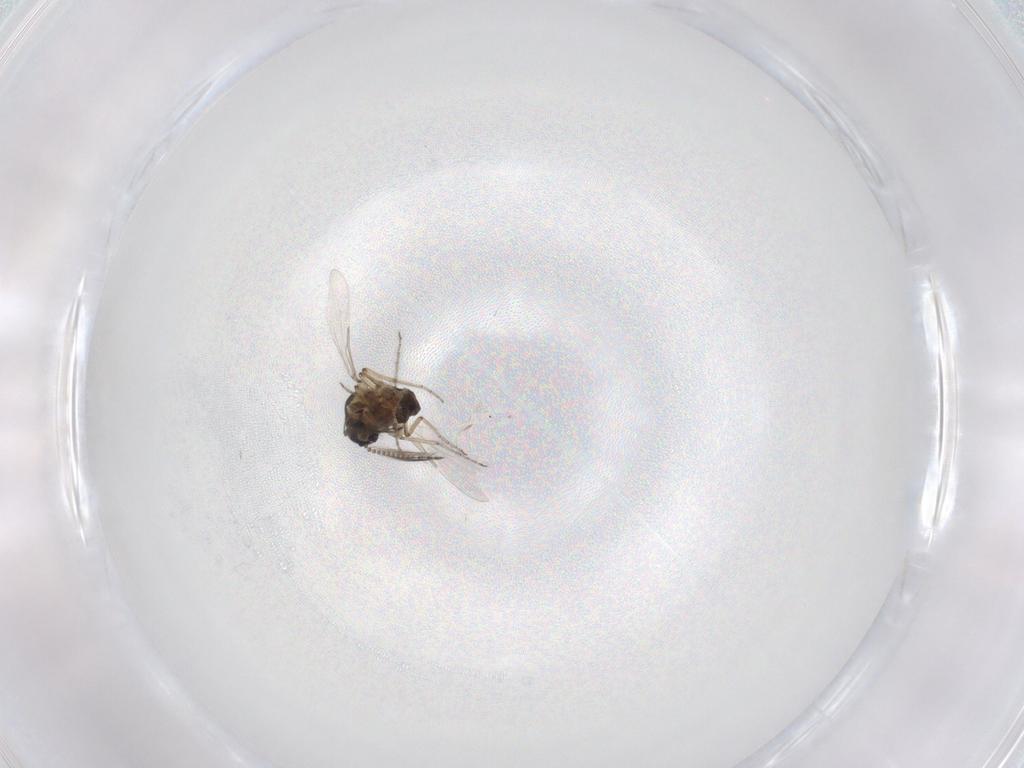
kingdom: Animalia
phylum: Arthropoda
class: Insecta
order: Diptera
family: Ceratopogonidae
